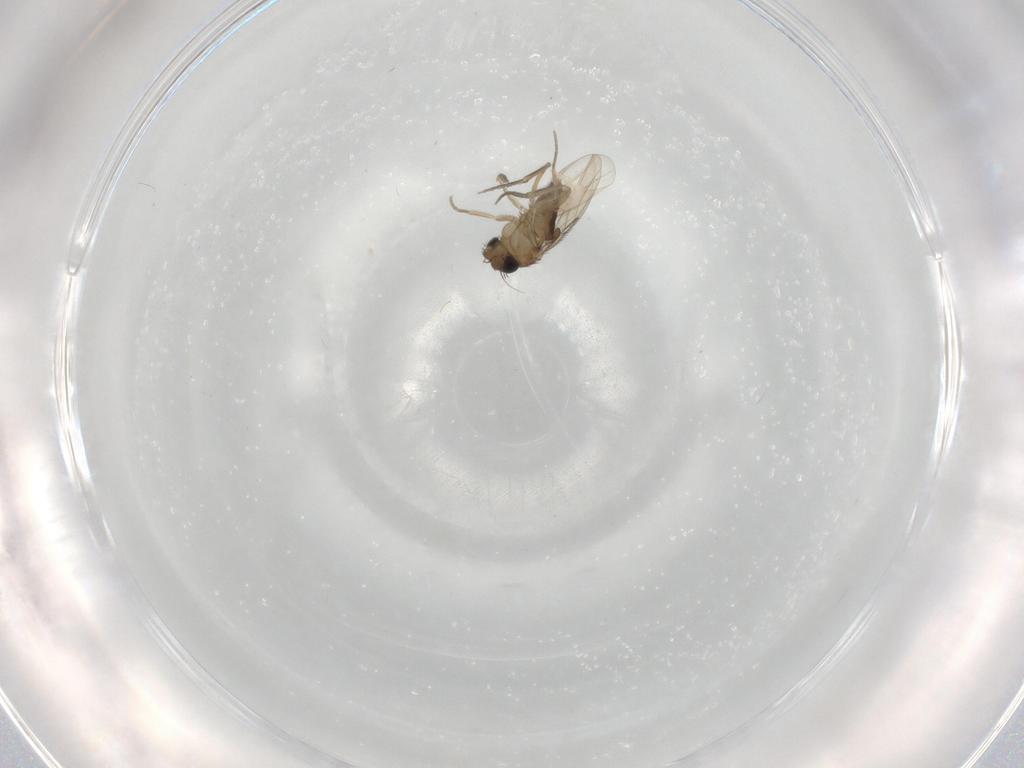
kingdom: Animalia
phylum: Arthropoda
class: Insecta
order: Diptera
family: Phoridae
